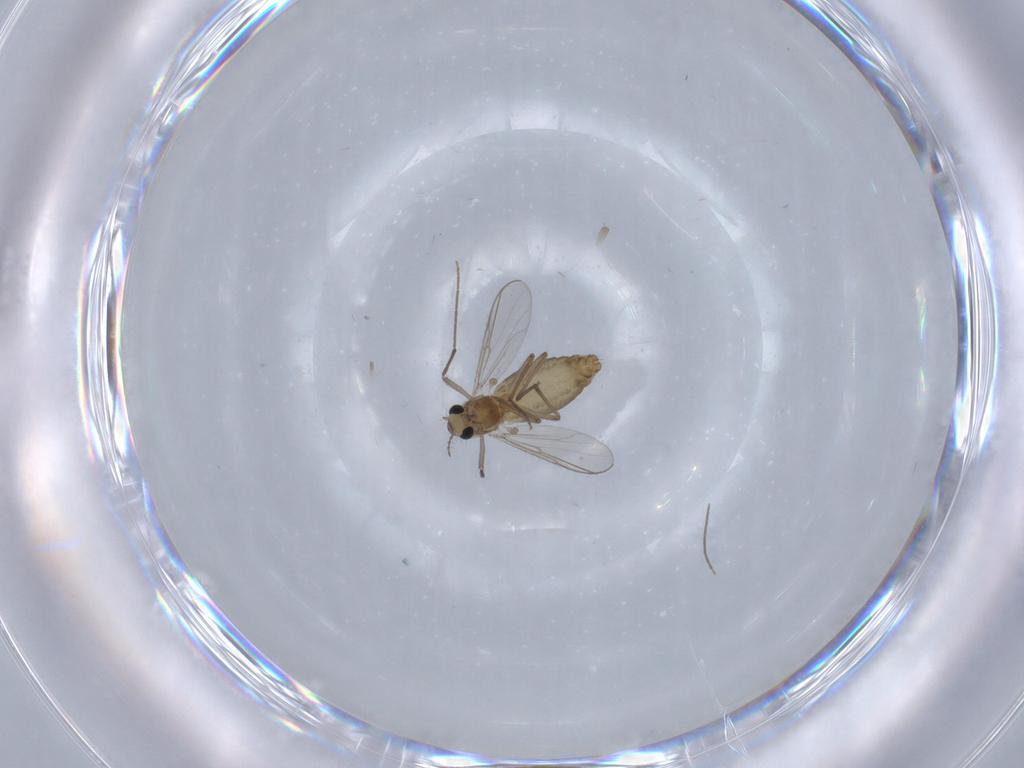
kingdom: Animalia
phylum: Arthropoda
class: Insecta
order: Diptera
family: Chironomidae
